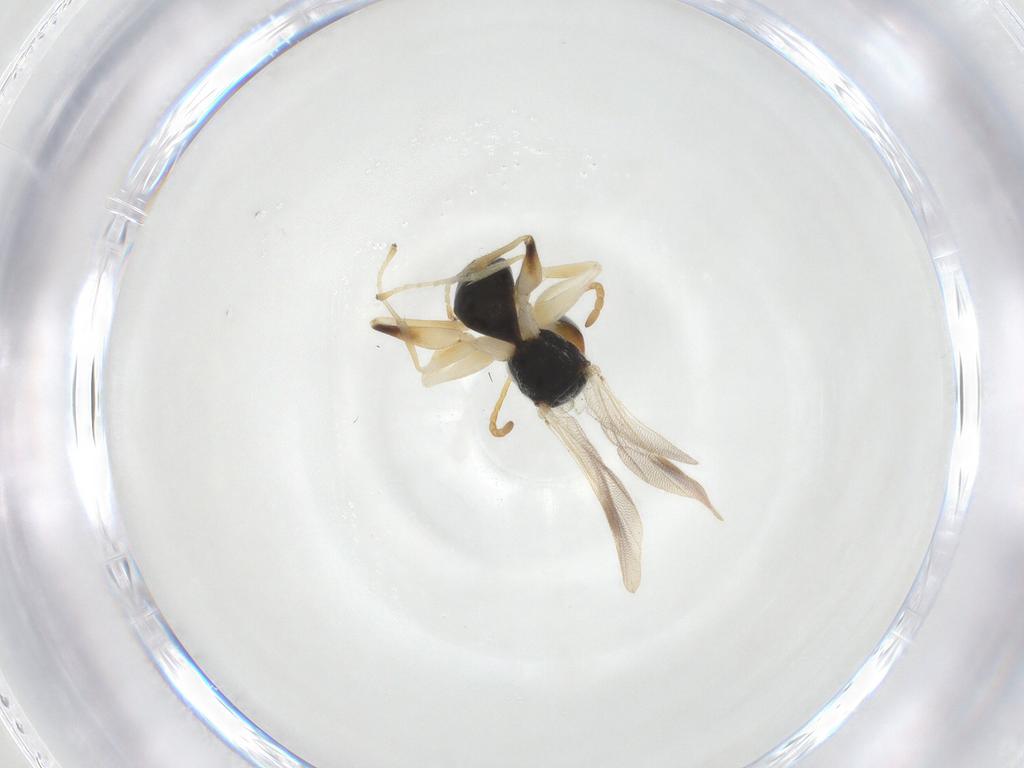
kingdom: Animalia
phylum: Arthropoda
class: Insecta
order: Hymenoptera
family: Dryinidae
